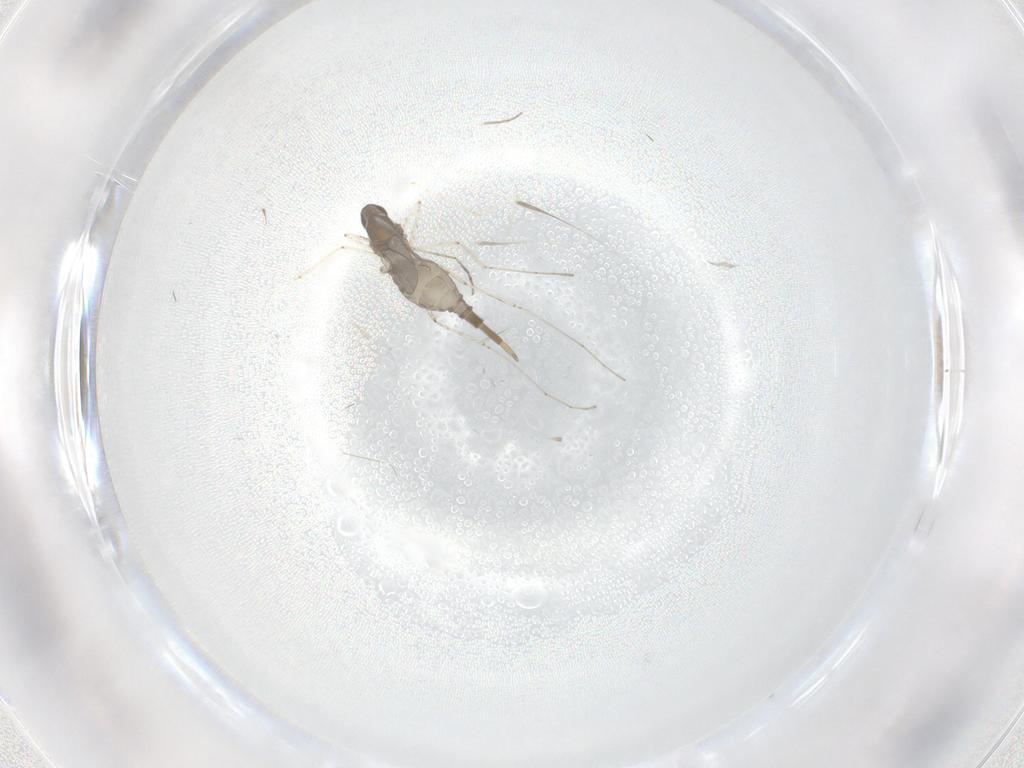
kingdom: Animalia
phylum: Arthropoda
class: Insecta
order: Diptera
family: Cecidomyiidae
